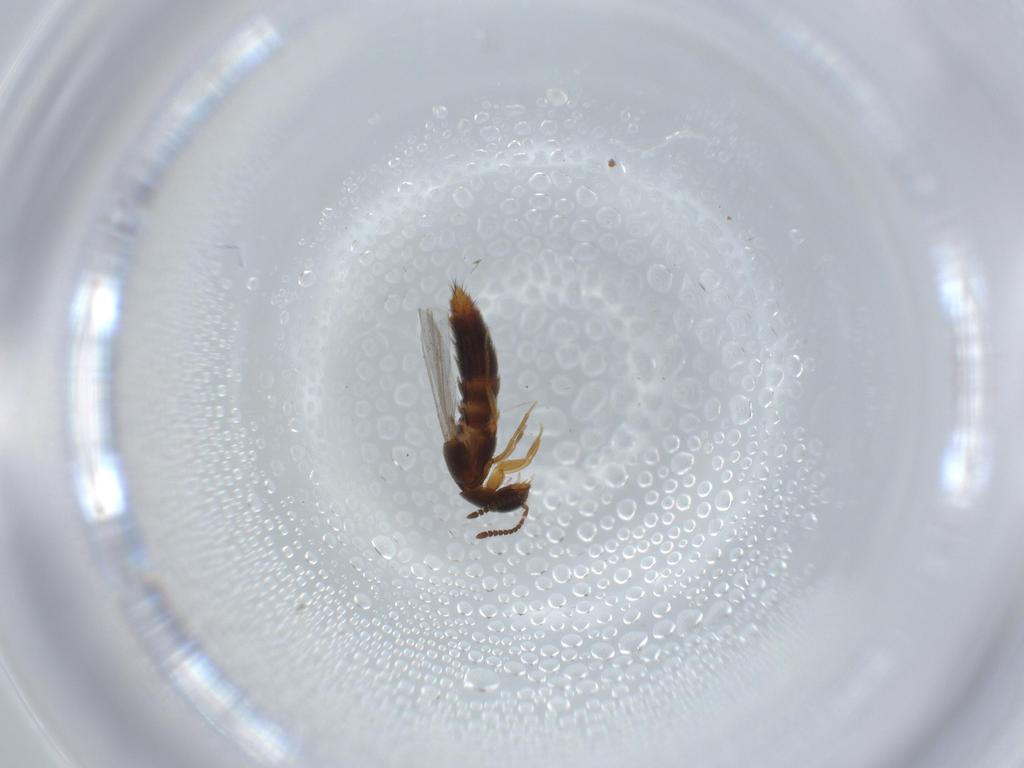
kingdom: Animalia
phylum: Arthropoda
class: Insecta
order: Coleoptera
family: Staphylinidae
